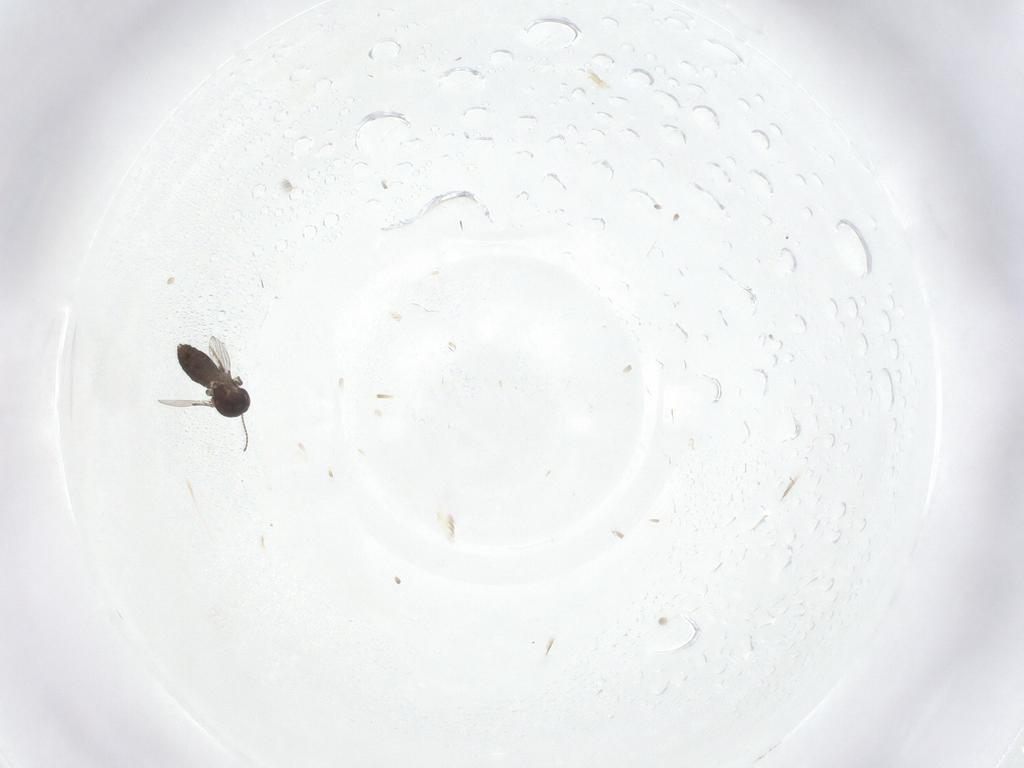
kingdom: Animalia
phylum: Arthropoda
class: Insecta
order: Diptera
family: Ceratopogonidae
